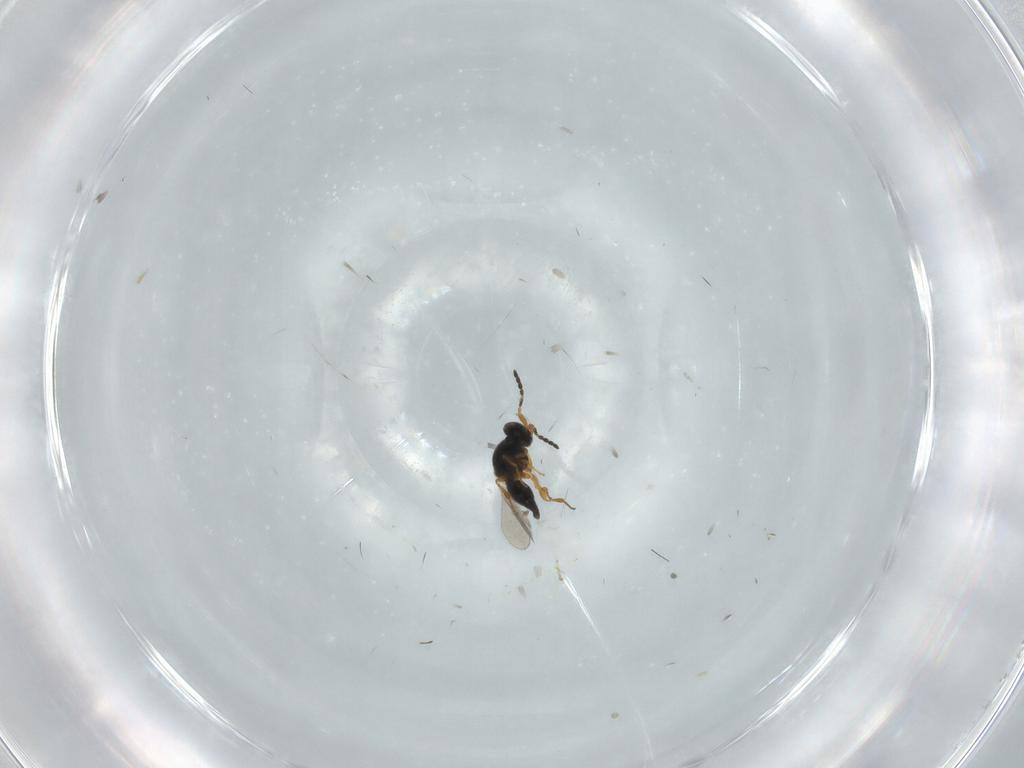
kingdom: Animalia
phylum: Arthropoda
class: Insecta
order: Hymenoptera
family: Platygastridae
